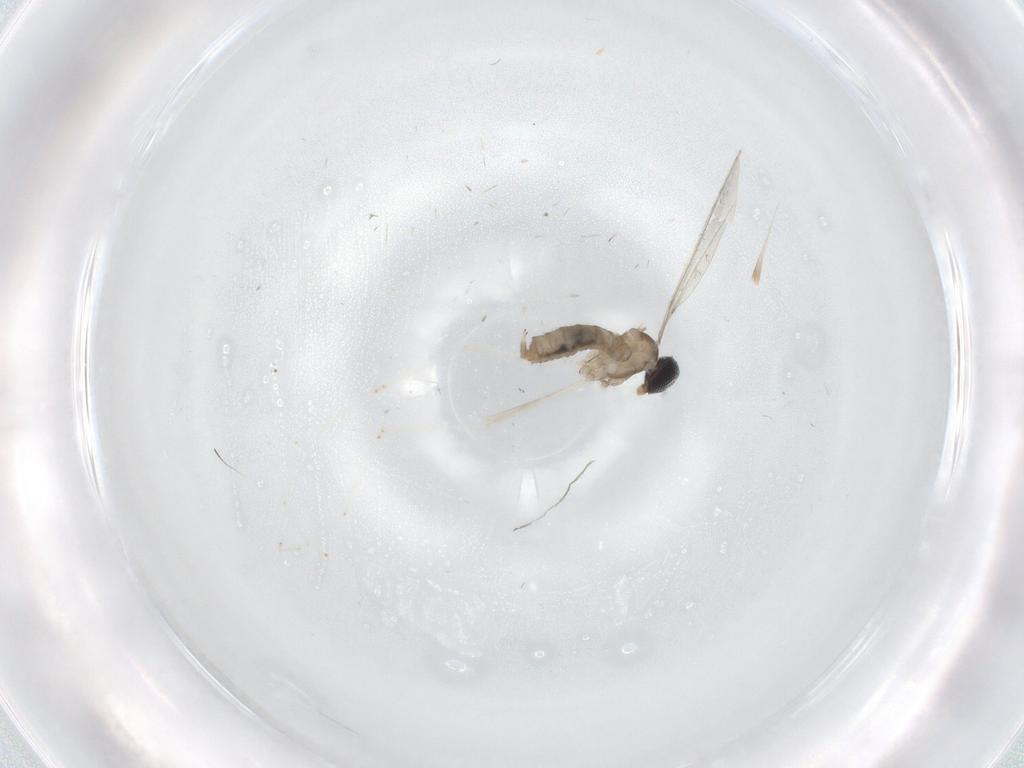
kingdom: Animalia
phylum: Arthropoda
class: Insecta
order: Diptera
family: Cecidomyiidae
